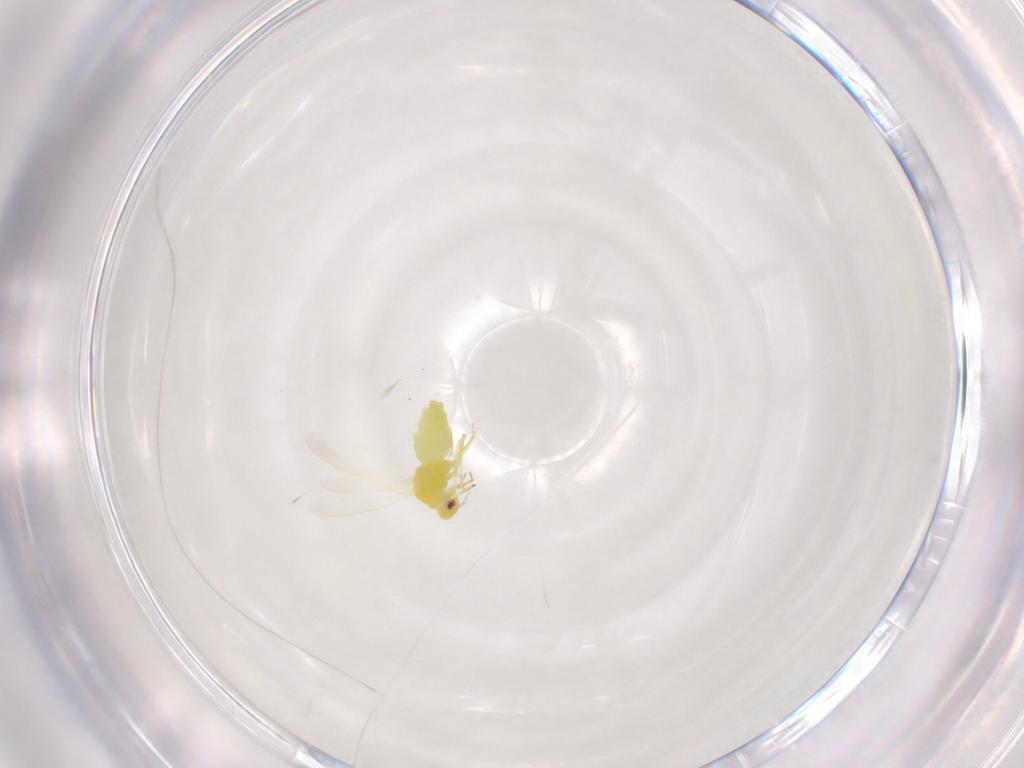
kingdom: Animalia
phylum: Arthropoda
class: Insecta
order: Hemiptera
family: Aleyrodidae
